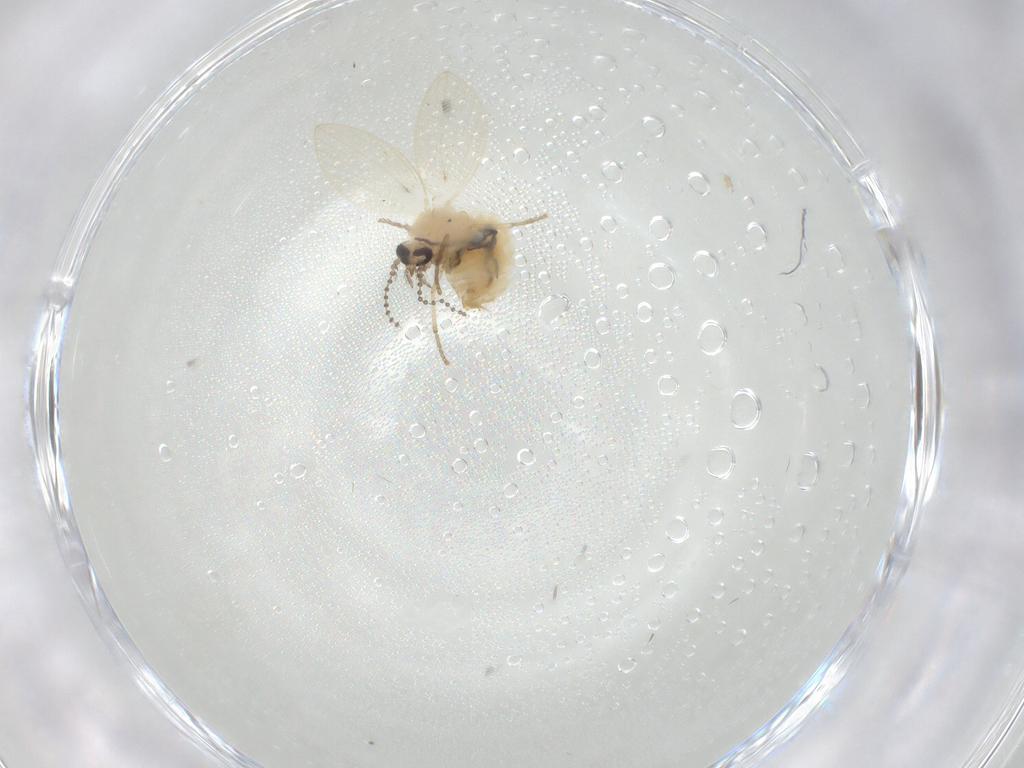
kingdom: Animalia
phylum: Arthropoda
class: Insecta
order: Diptera
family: Psychodidae
